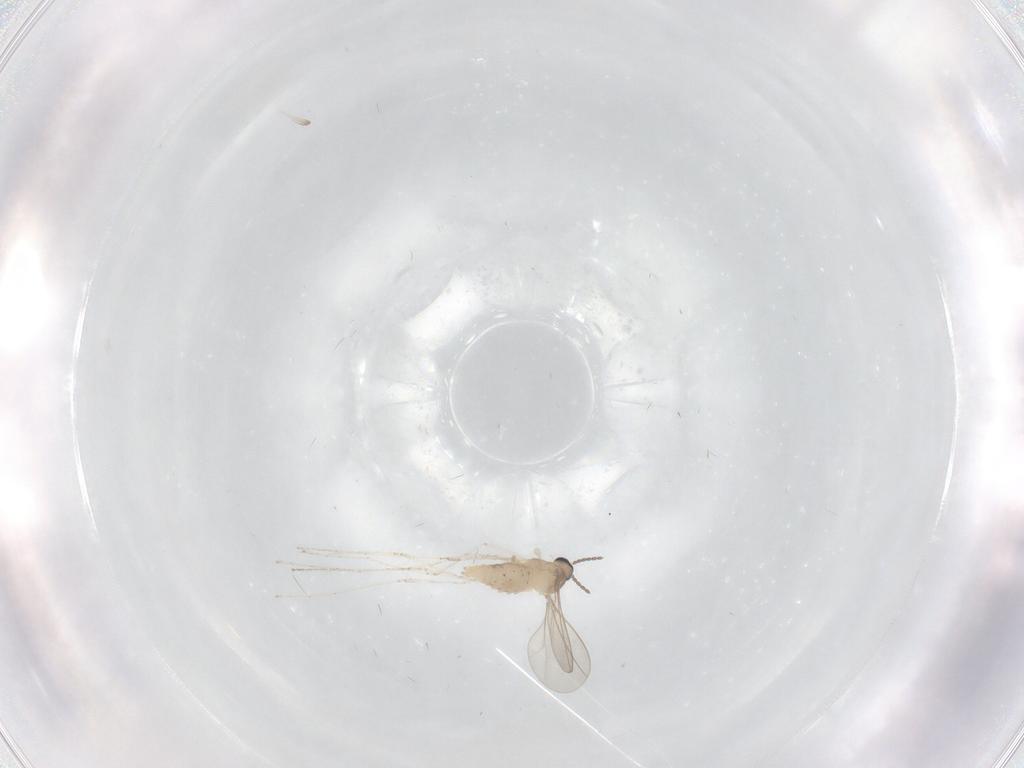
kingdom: Animalia
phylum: Arthropoda
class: Insecta
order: Diptera
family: Cecidomyiidae
